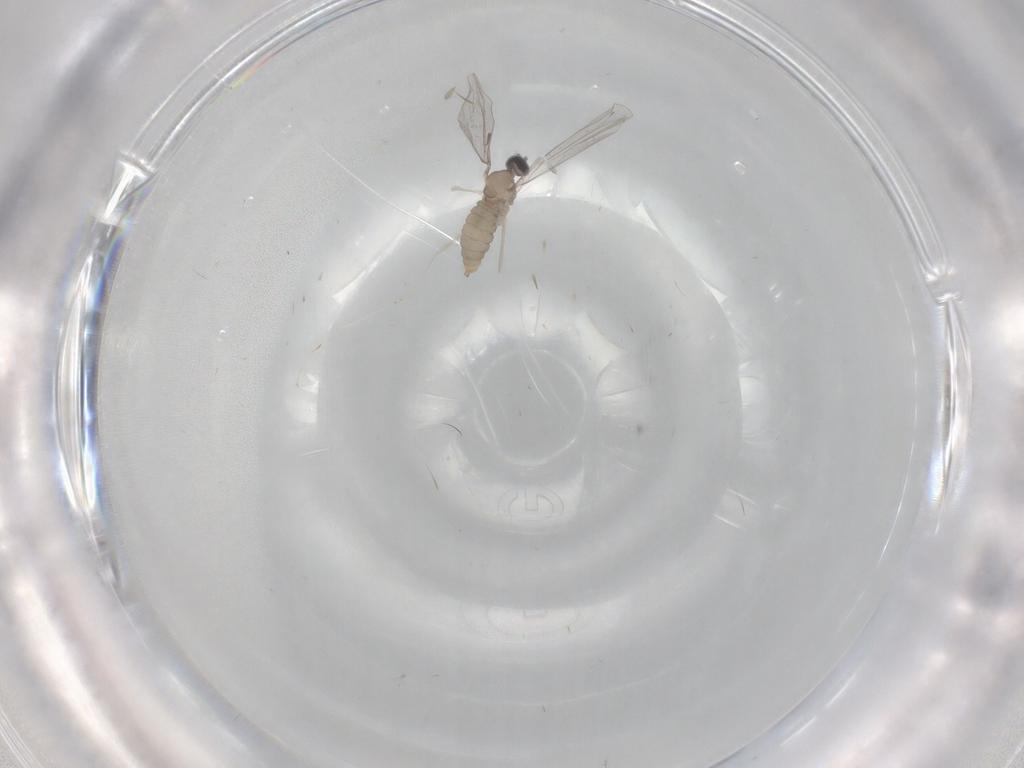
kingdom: Animalia
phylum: Arthropoda
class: Insecta
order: Diptera
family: Cecidomyiidae
